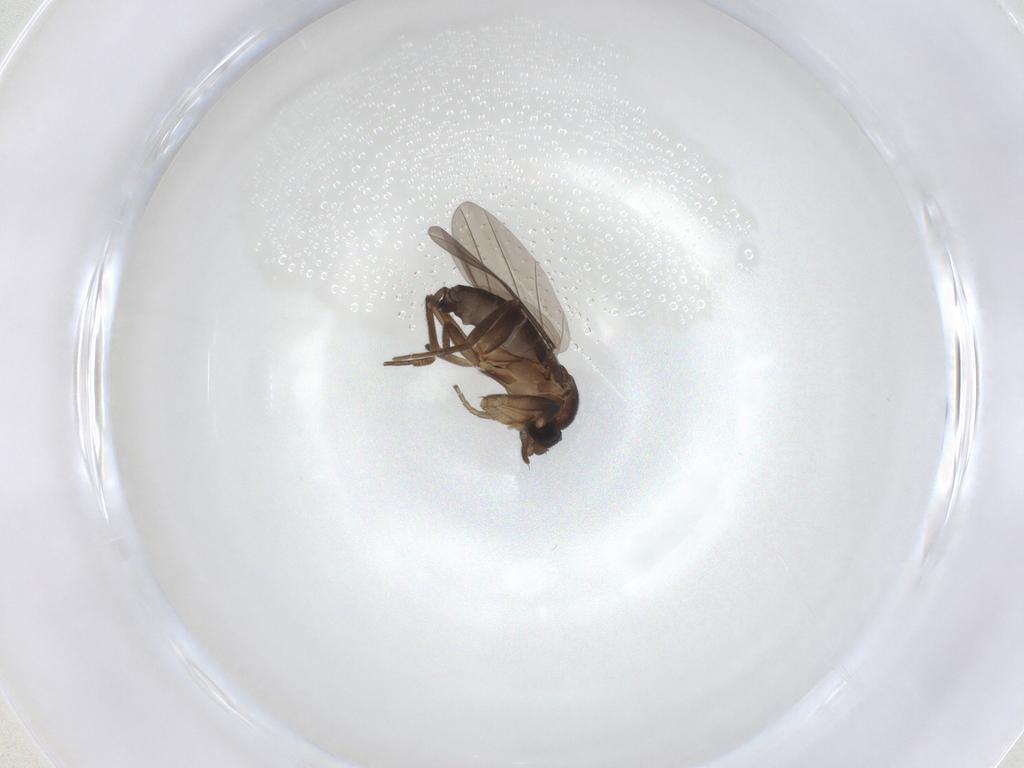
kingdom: Animalia
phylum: Arthropoda
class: Insecta
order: Diptera
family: Phoridae
